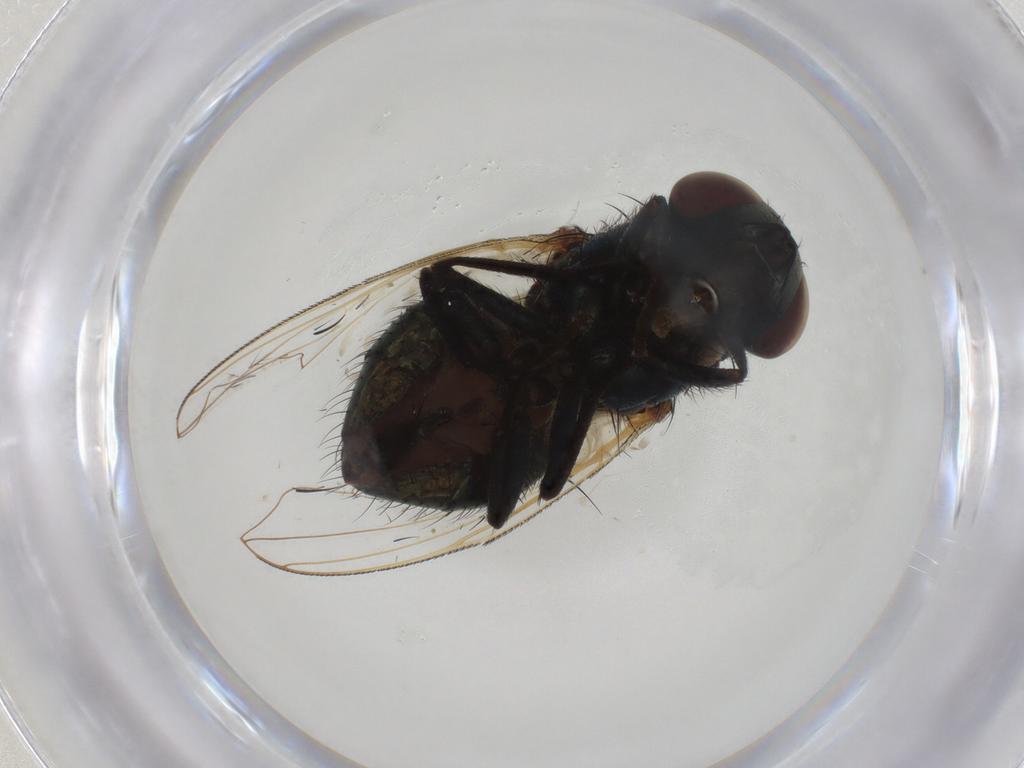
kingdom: Animalia
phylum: Arthropoda
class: Insecta
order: Diptera
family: Muscidae
